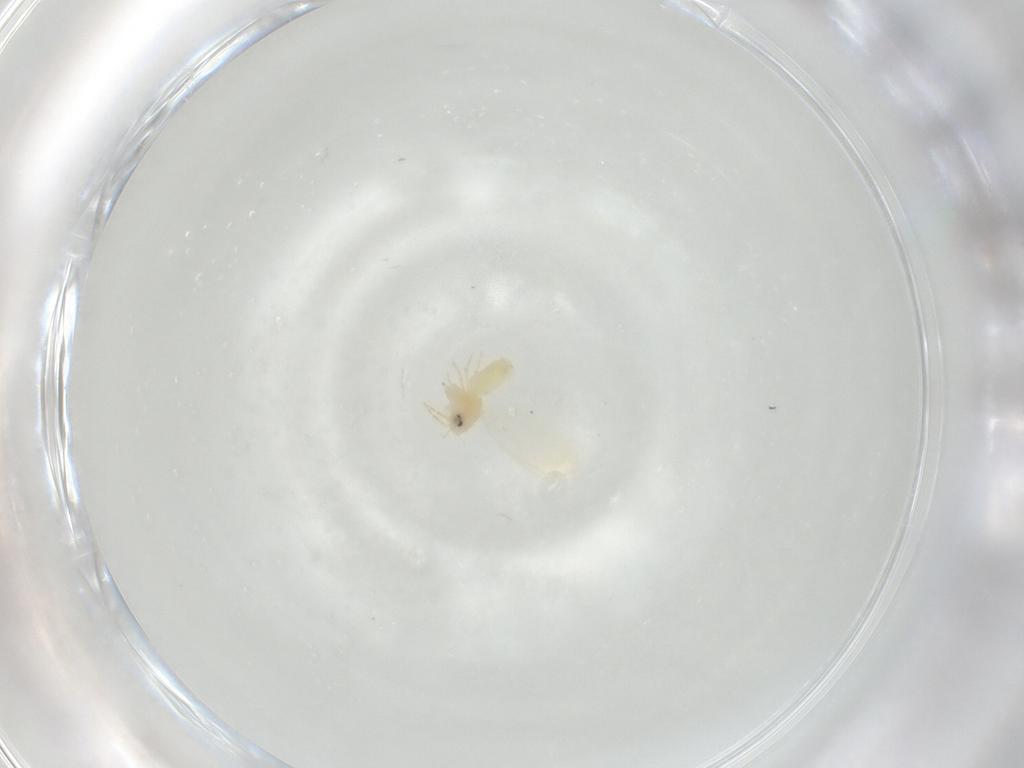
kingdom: Animalia
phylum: Arthropoda
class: Insecta
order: Hemiptera
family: Aleyrodidae
